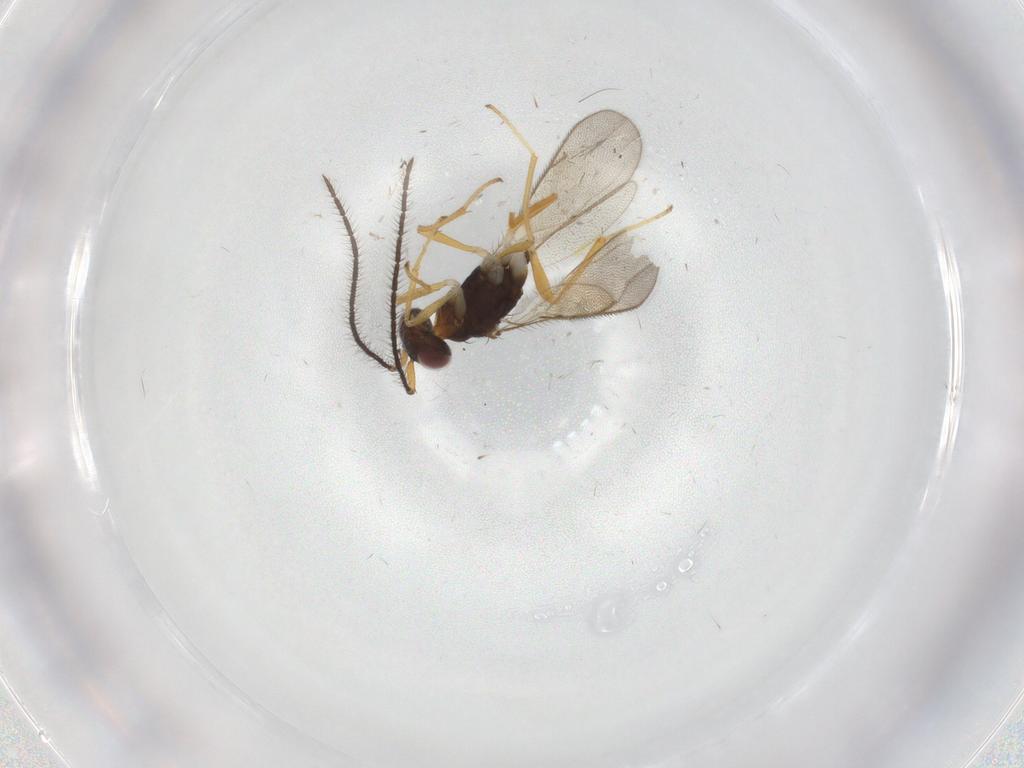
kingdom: Animalia
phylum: Arthropoda
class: Insecta
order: Hymenoptera
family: Diparidae
